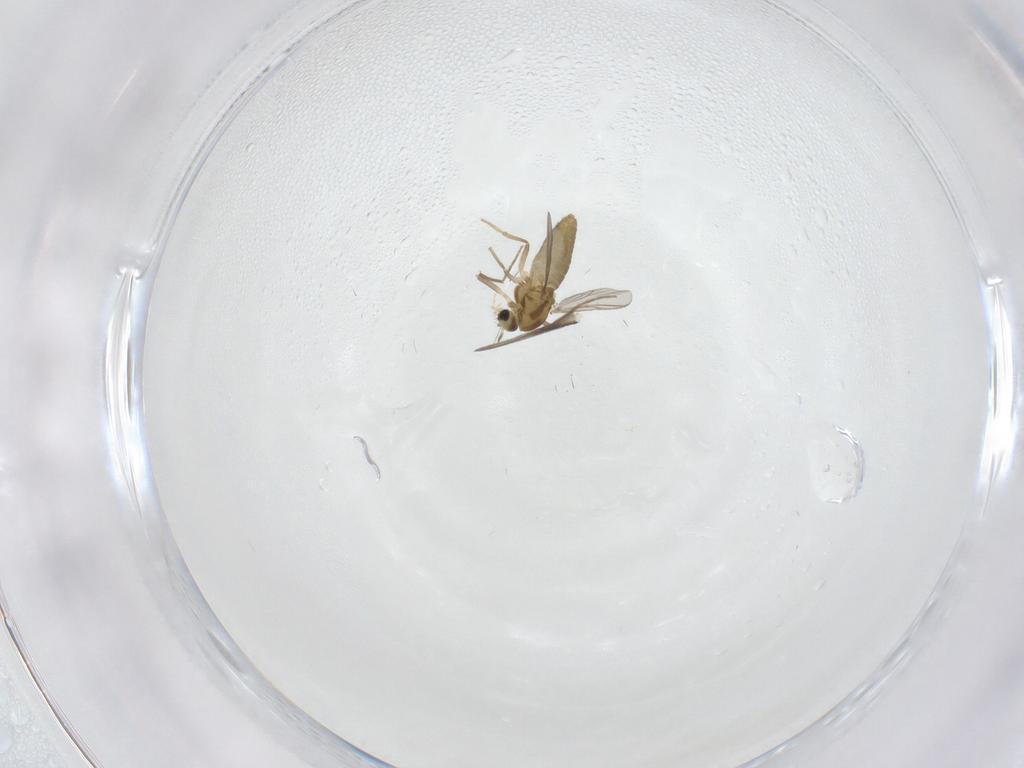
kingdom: Animalia
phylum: Arthropoda
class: Insecta
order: Diptera
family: Chironomidae
